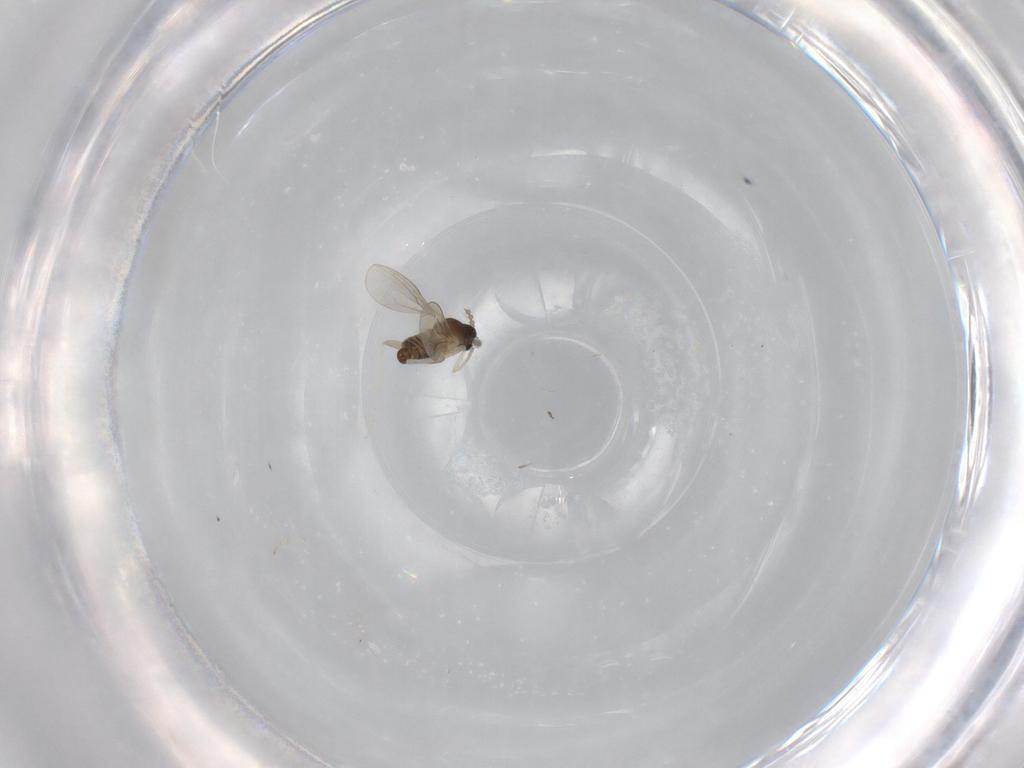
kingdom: Animalia
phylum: Arthropoda
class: Insecta
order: Diptera
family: Cecidomyiidae
